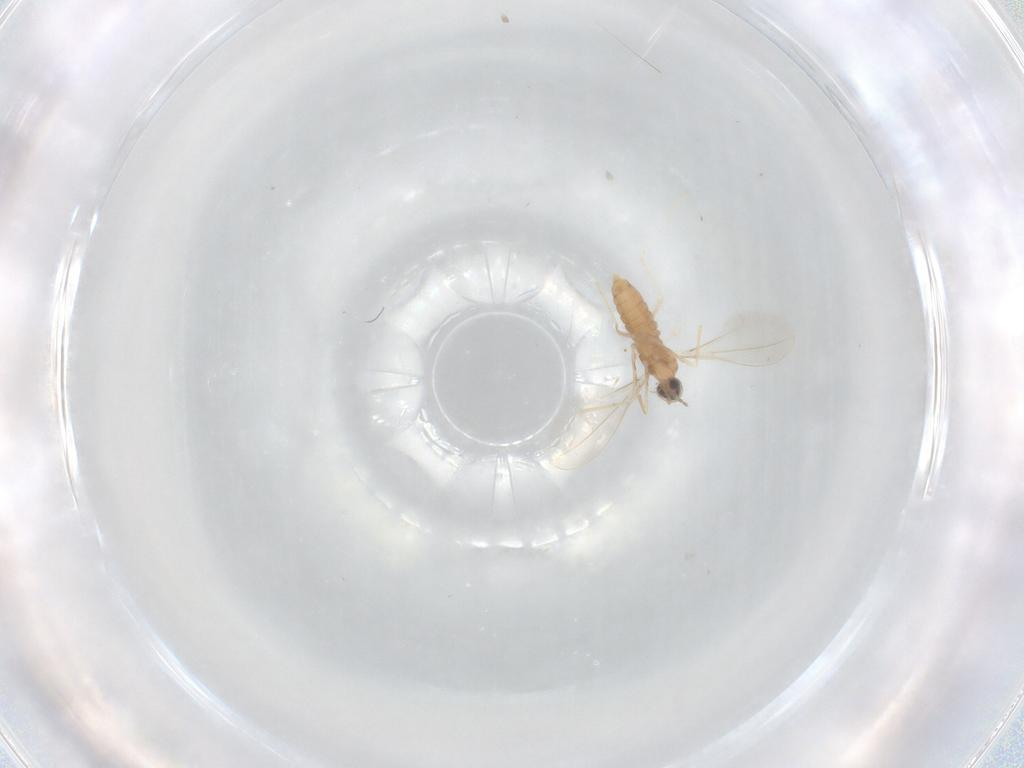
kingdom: Animalia
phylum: Arthropoda
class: Insecta
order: Diptera
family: Cecidomyiidae
